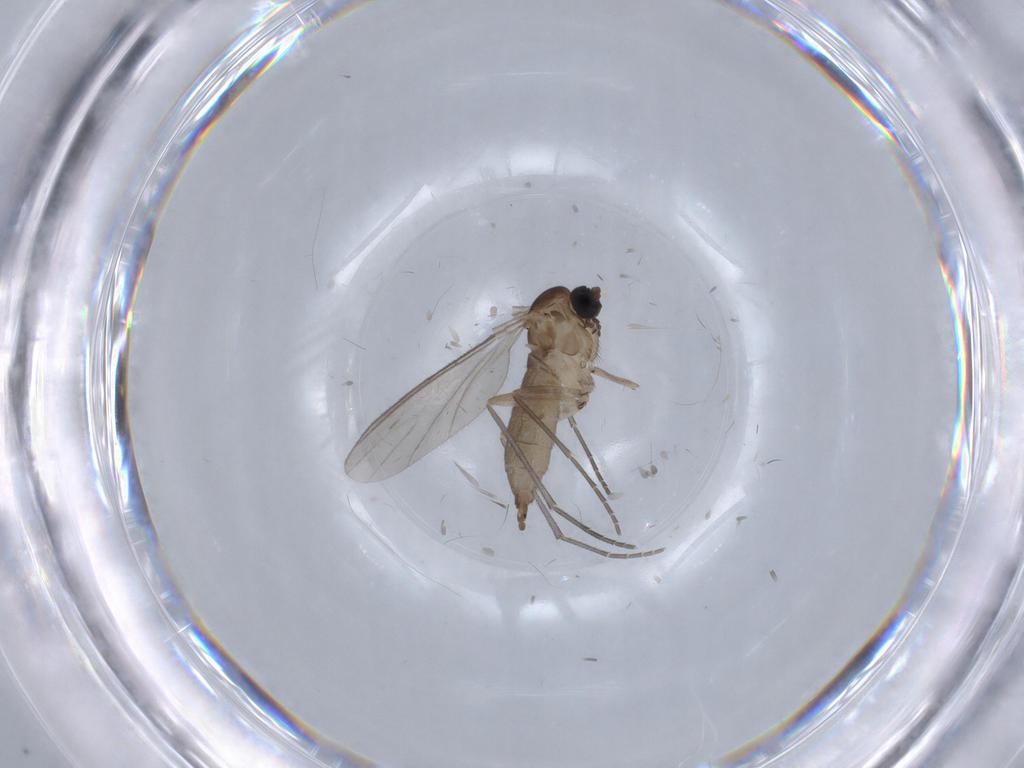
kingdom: Animalia
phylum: Arthropoda
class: Insecta
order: Diptera
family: Sciaridae
